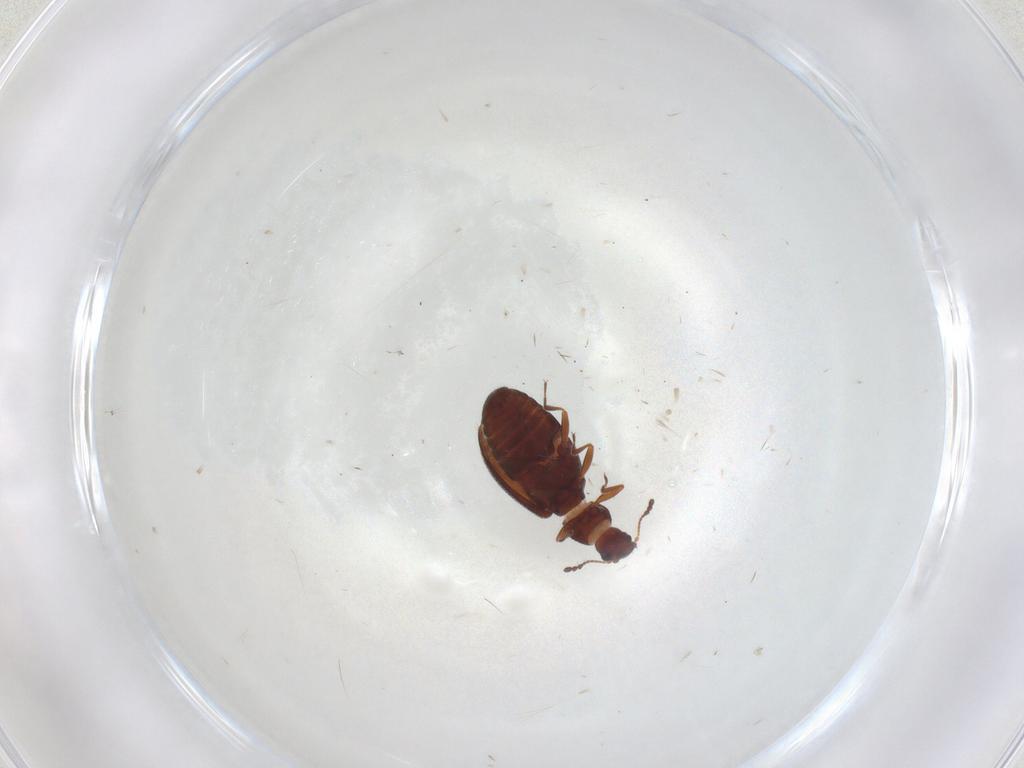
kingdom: Animalia
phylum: Arthropoda
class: Insecta
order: Coleoptera
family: Latridiidae
